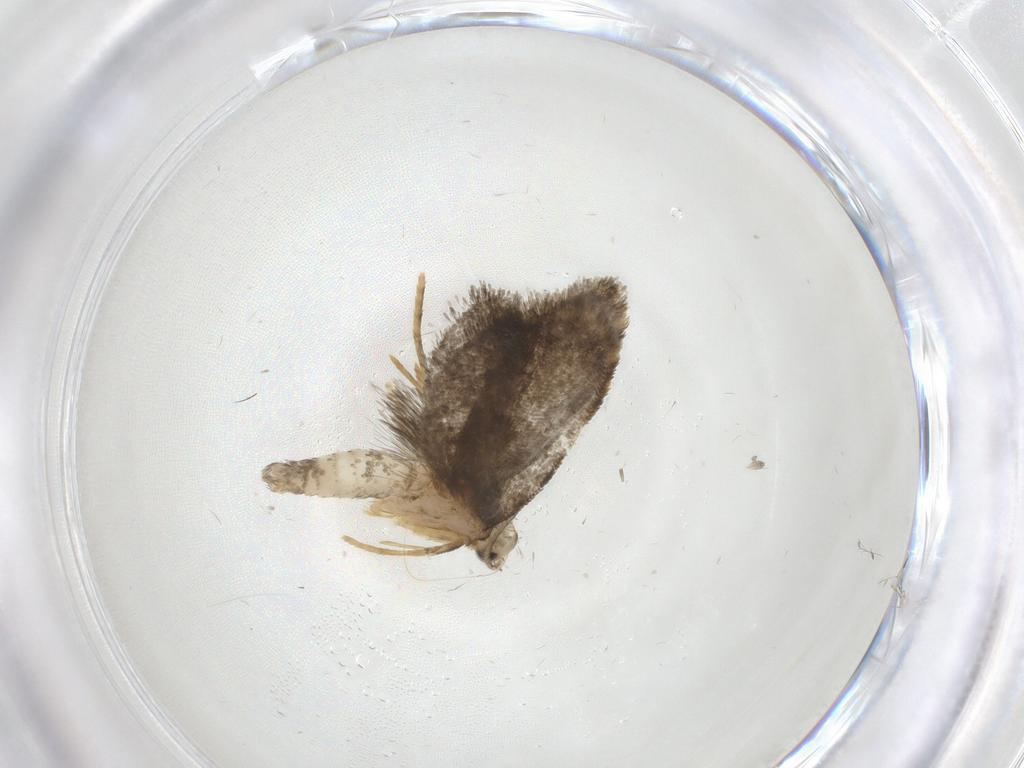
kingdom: Animalia
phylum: Arthropoda
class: Insecta
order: Lepidoptera
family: Psychidae
